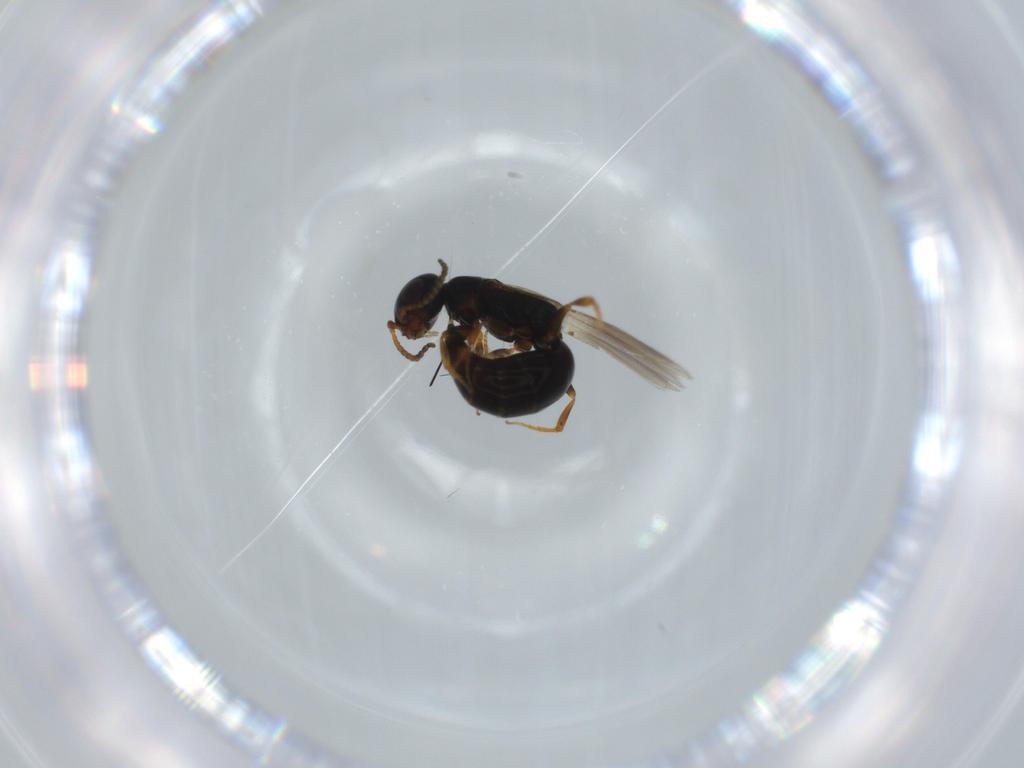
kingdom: Animalia
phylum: Arthropoda
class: Insecta
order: Hymenoptera
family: Bethylidae
